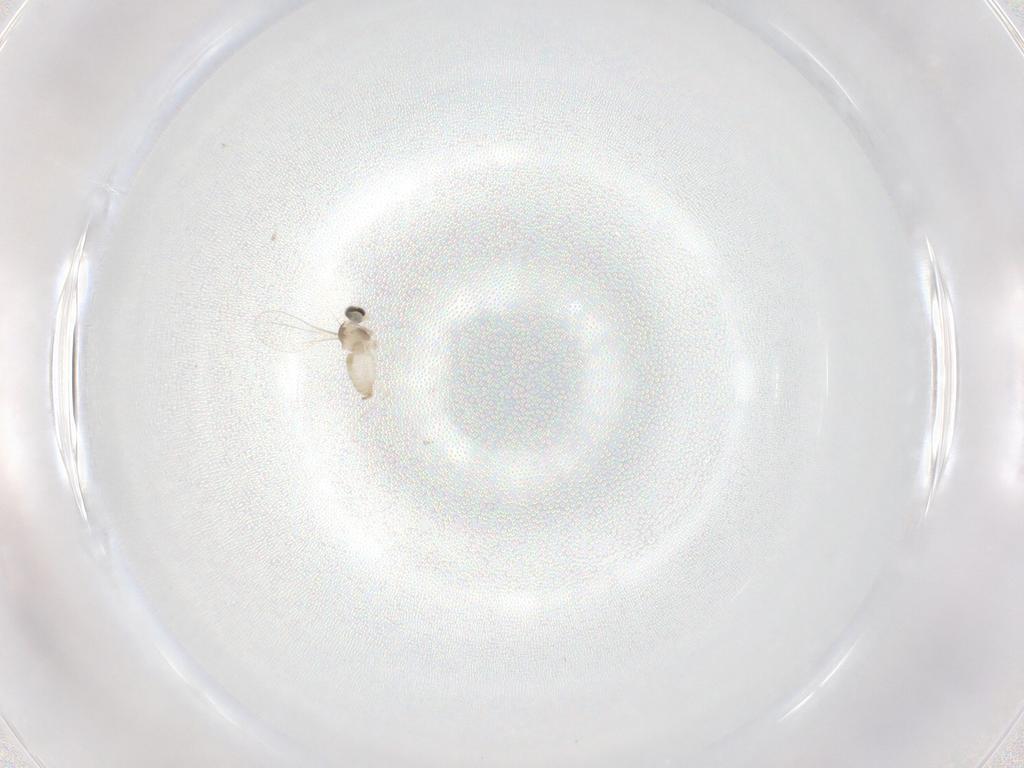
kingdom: Animalia
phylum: Arthropoda
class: Insecta
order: Diptera
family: Cecidomyiidae
